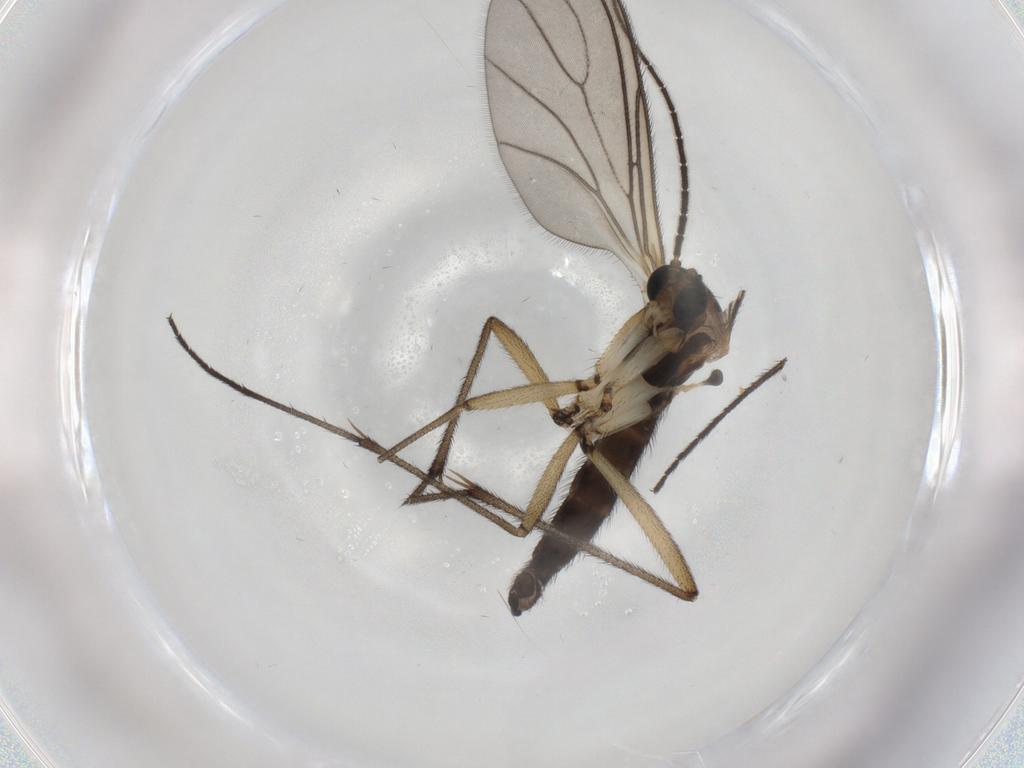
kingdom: Animalia
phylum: Arthropoda
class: Insecta
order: Diptera
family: Sciaridae
